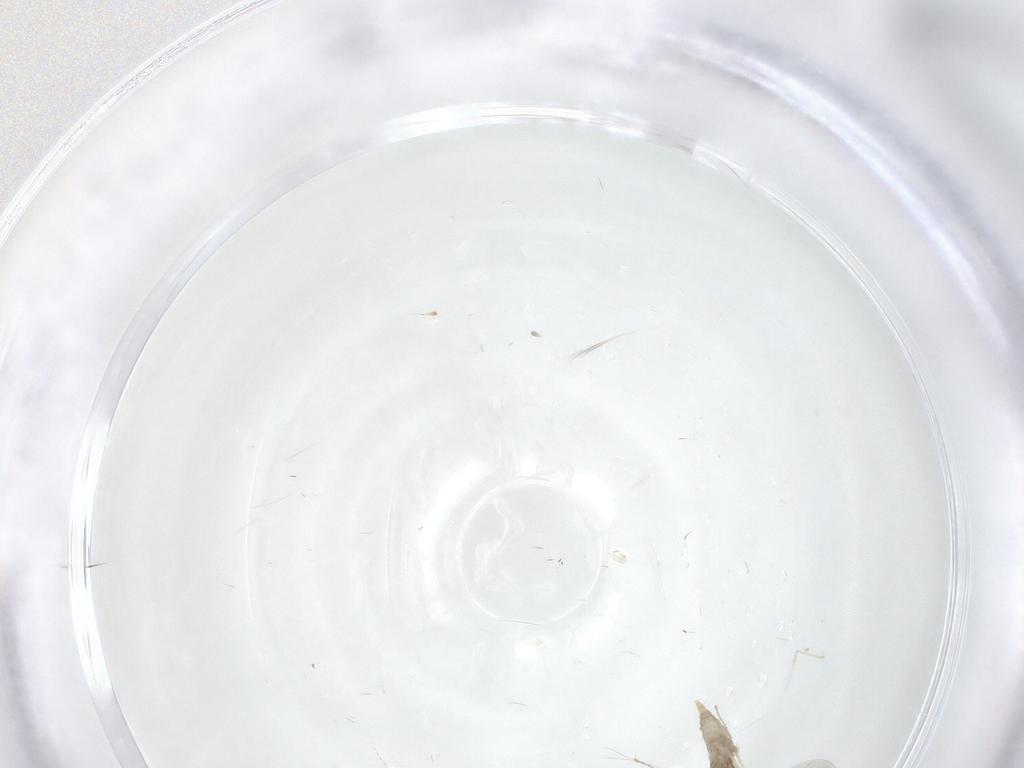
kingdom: Animalia
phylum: Arthropoda
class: Insecta
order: Diptera
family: Cecidomyiidae
